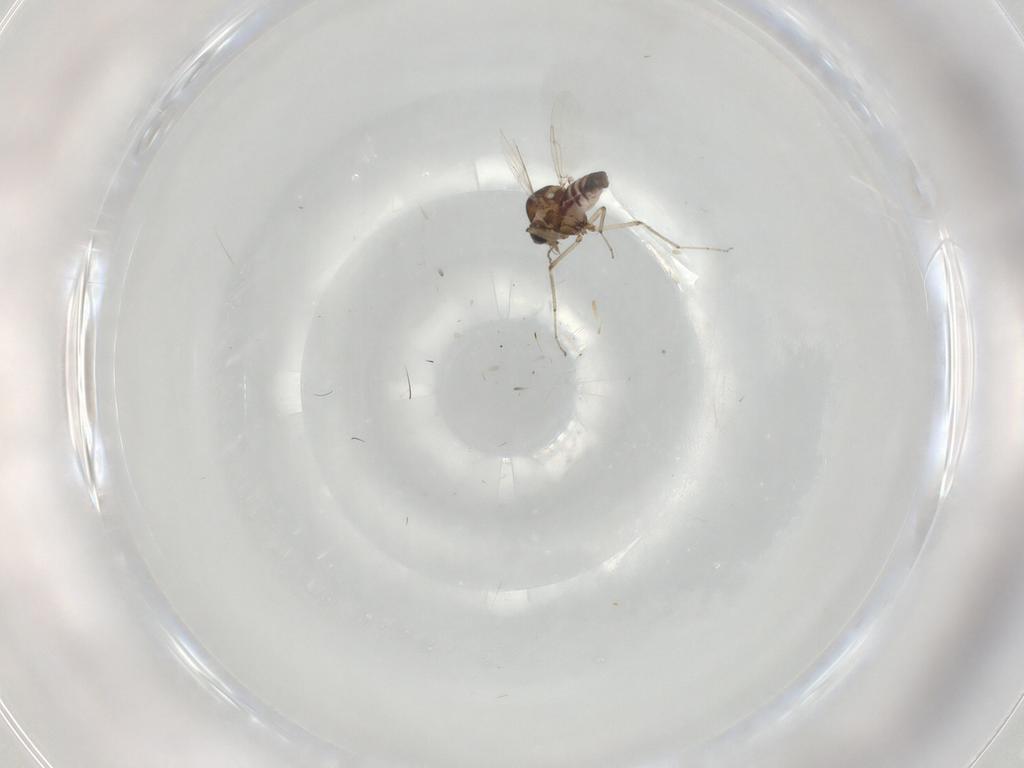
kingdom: Animalia
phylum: Arthropoda
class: Insecta
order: Diptera
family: Ceratopogonidae
